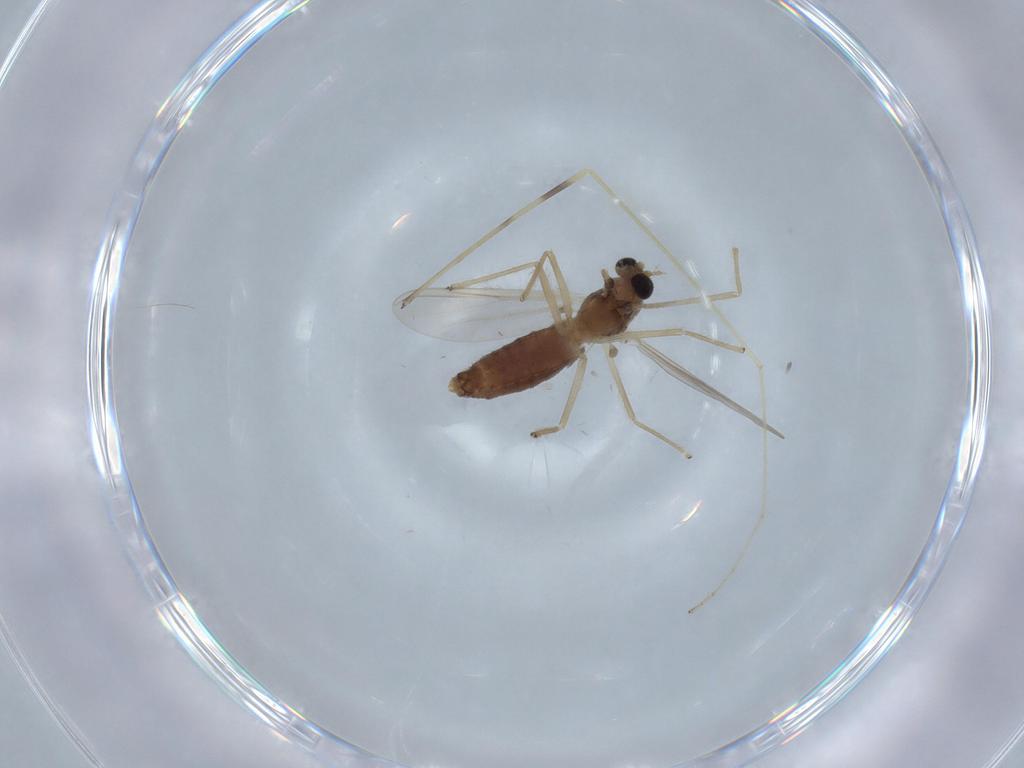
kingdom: Animalia
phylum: Arthropoda
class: Insecta
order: Diptera
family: Chironomidae
